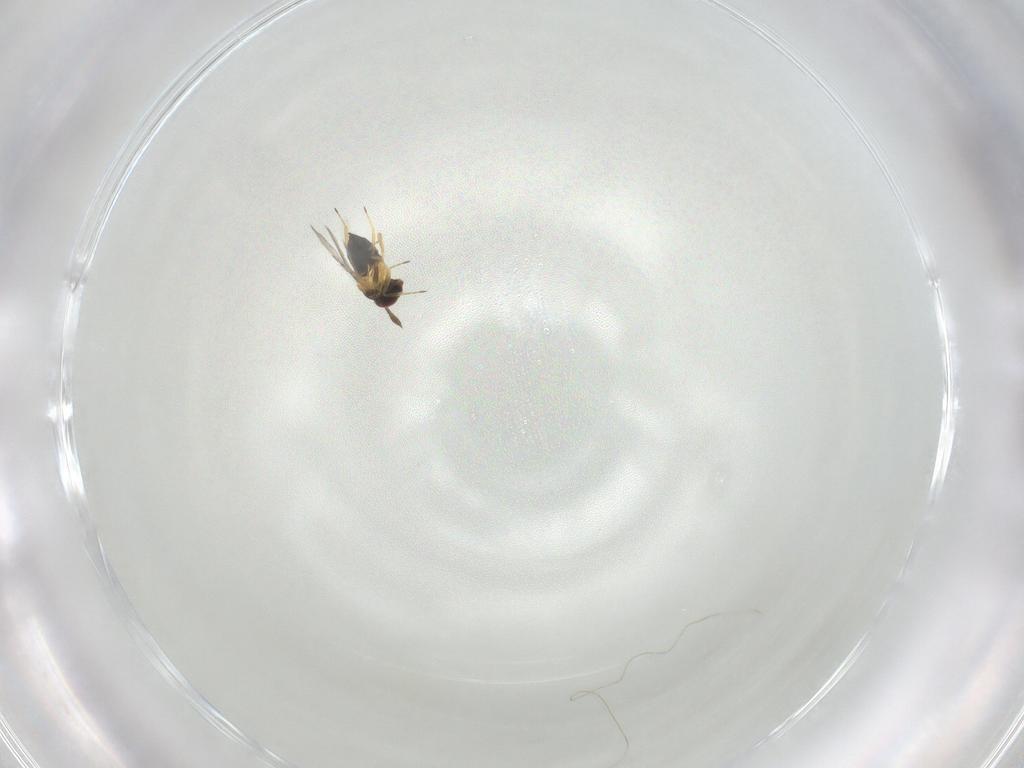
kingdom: Animalia
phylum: Arthropoda
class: Insecta
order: Hymenoptera
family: Trichogrammatidae
